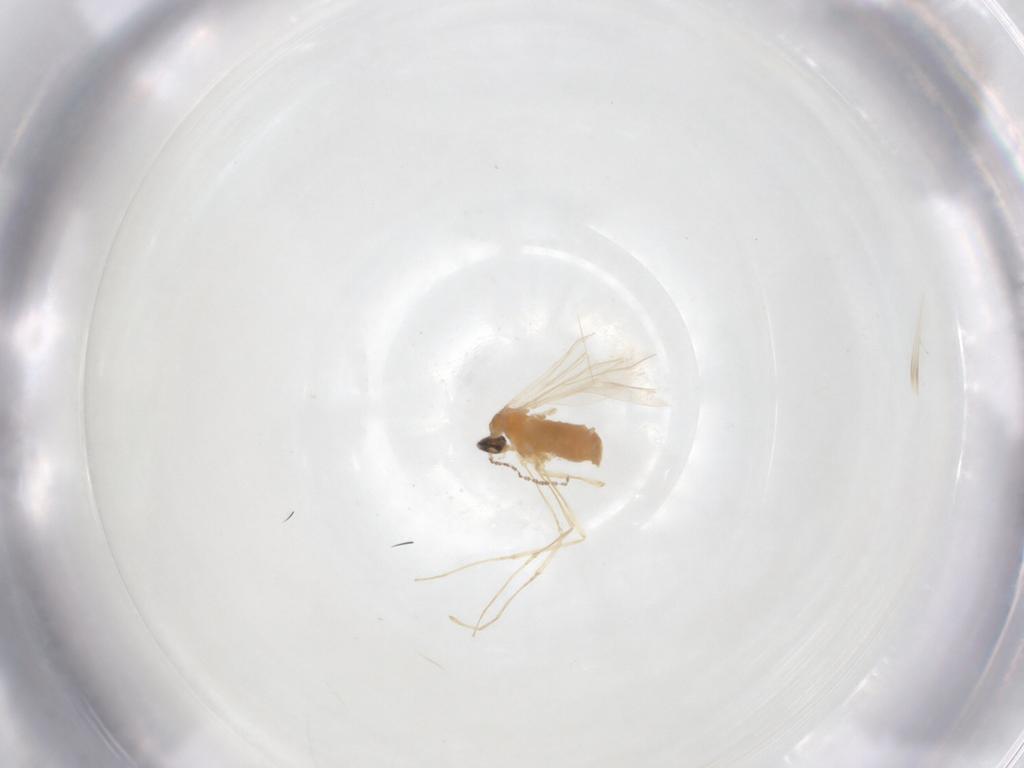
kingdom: Animalia
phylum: Arthropoda
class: Insecta
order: Diptera
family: Cecidomyiidae
